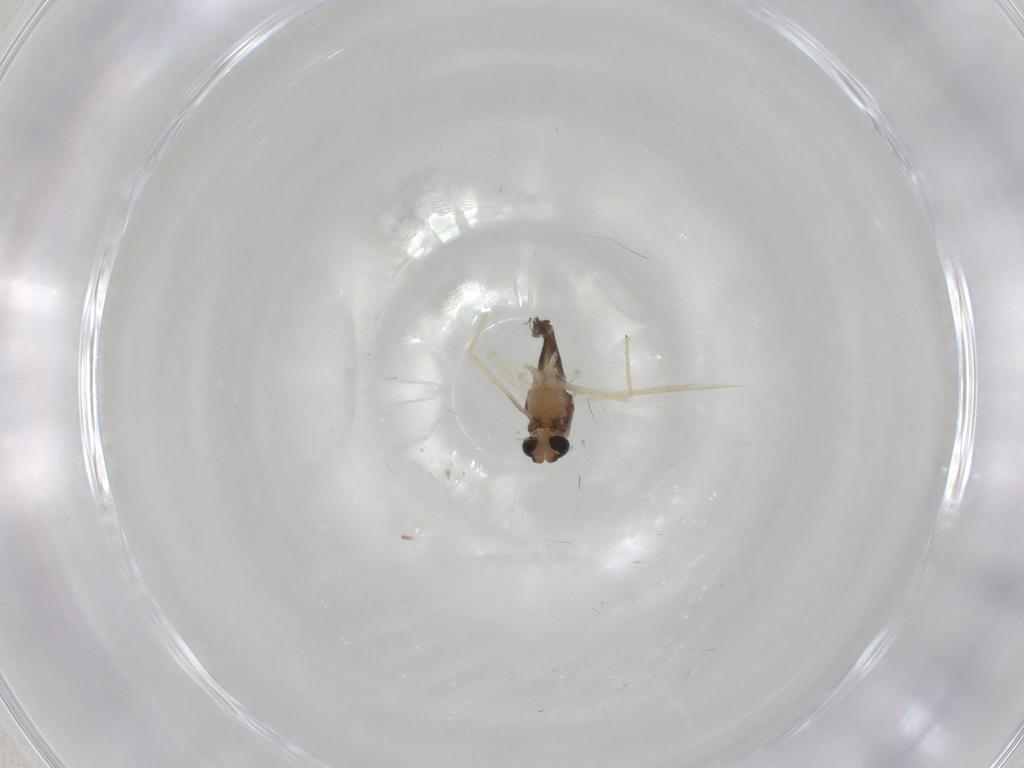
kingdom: Animalia
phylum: Arthropoda
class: Insecta
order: Diptera
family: Chironomidae
